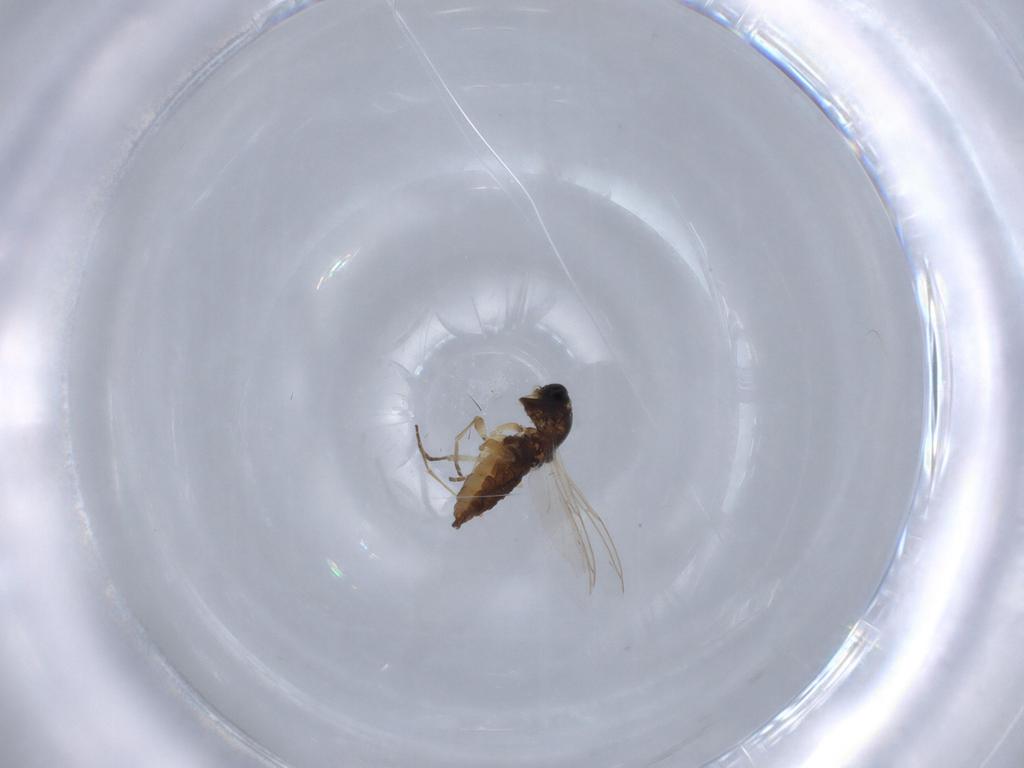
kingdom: Animalia
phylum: Arthropoda
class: Insecta
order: Diptera
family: Sciaridae
